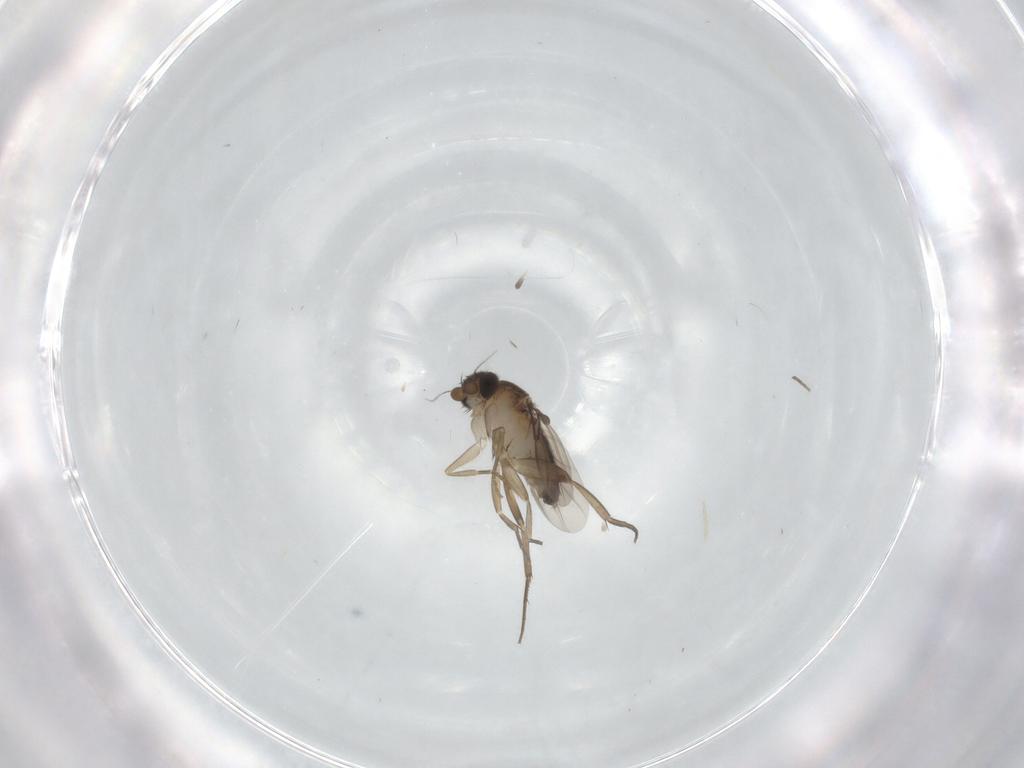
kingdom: Animalia
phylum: Arthropoda
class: Insecta
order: Diptera
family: Phoridae
